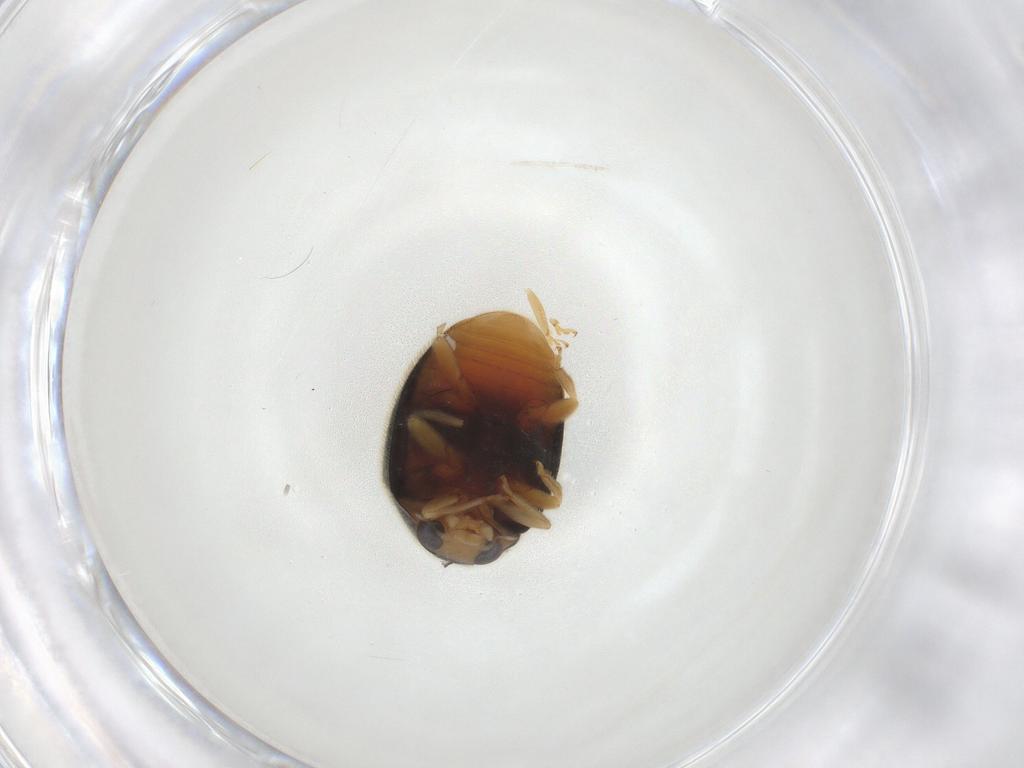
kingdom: Animalia
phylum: Arthropoda
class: Insecta
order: Coleoptera
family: Coccinellidae
